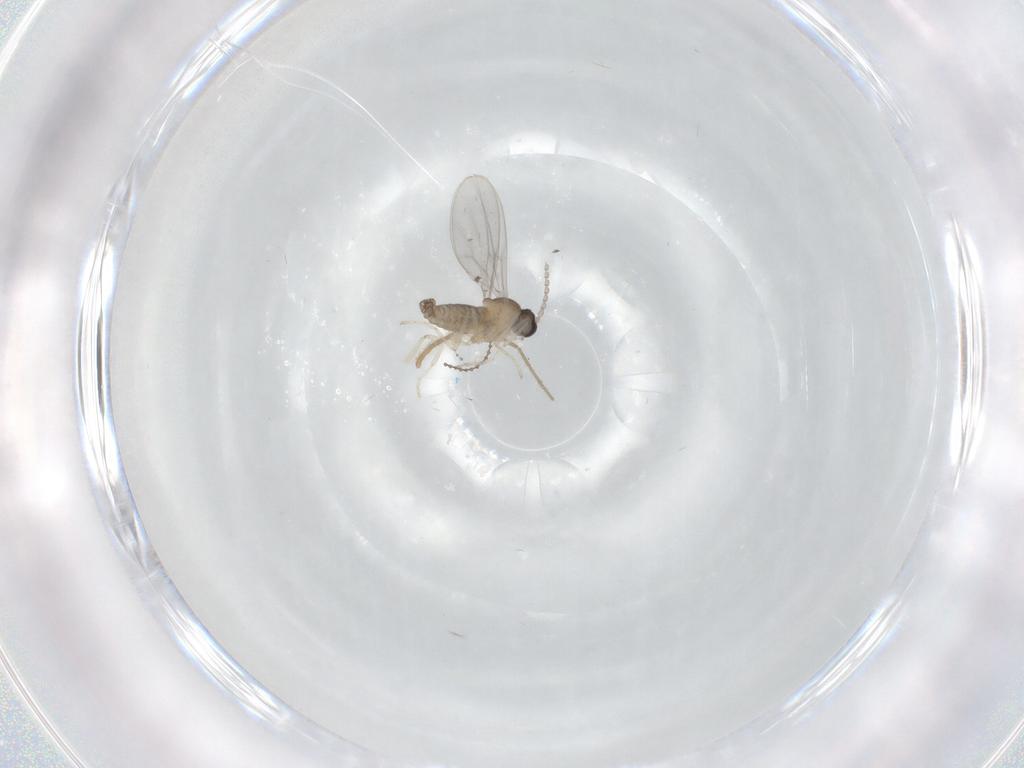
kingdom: Animalia
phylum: Arthropoda
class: Insecta
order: Diptera
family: Cecidomyiidae
